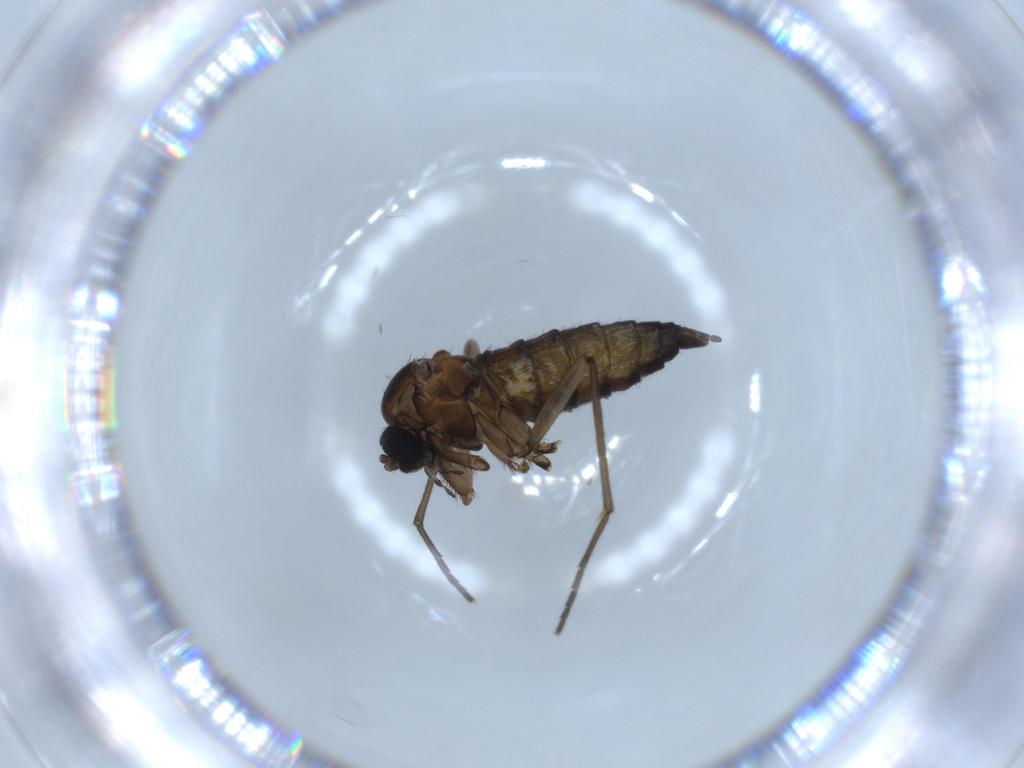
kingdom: Animalia
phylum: Arthropoda
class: Insecta
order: Diptera
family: Sciaridae
